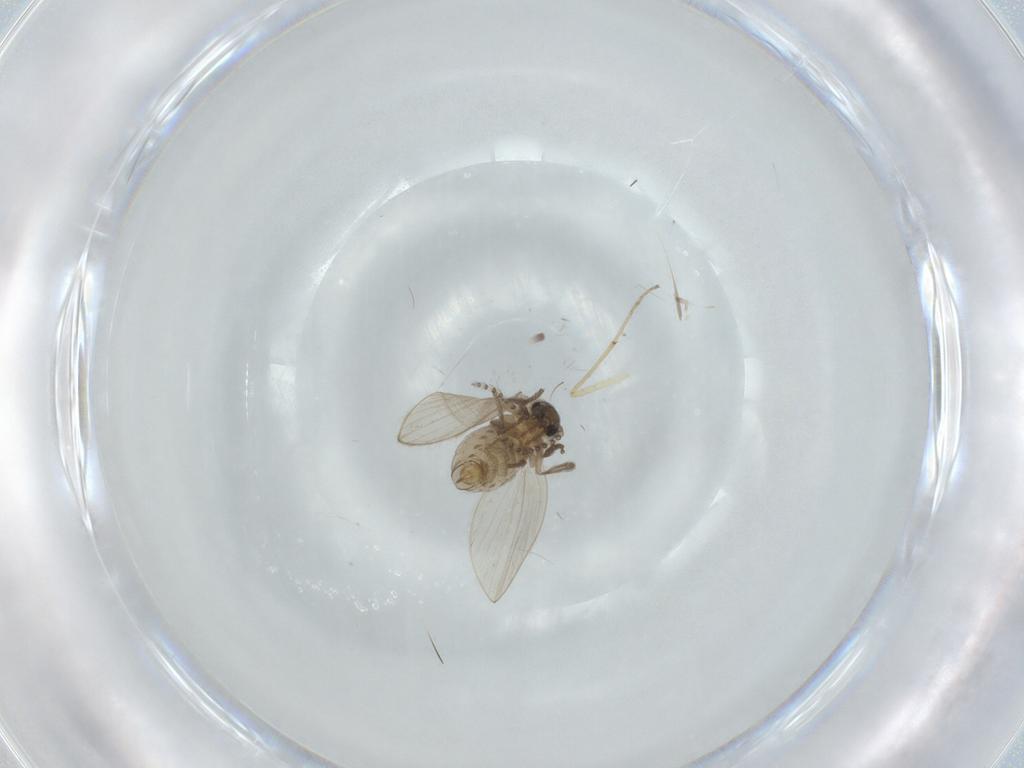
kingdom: Animalia
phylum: Arthropoda
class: Insecta
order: Diptera
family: Psychodidae
